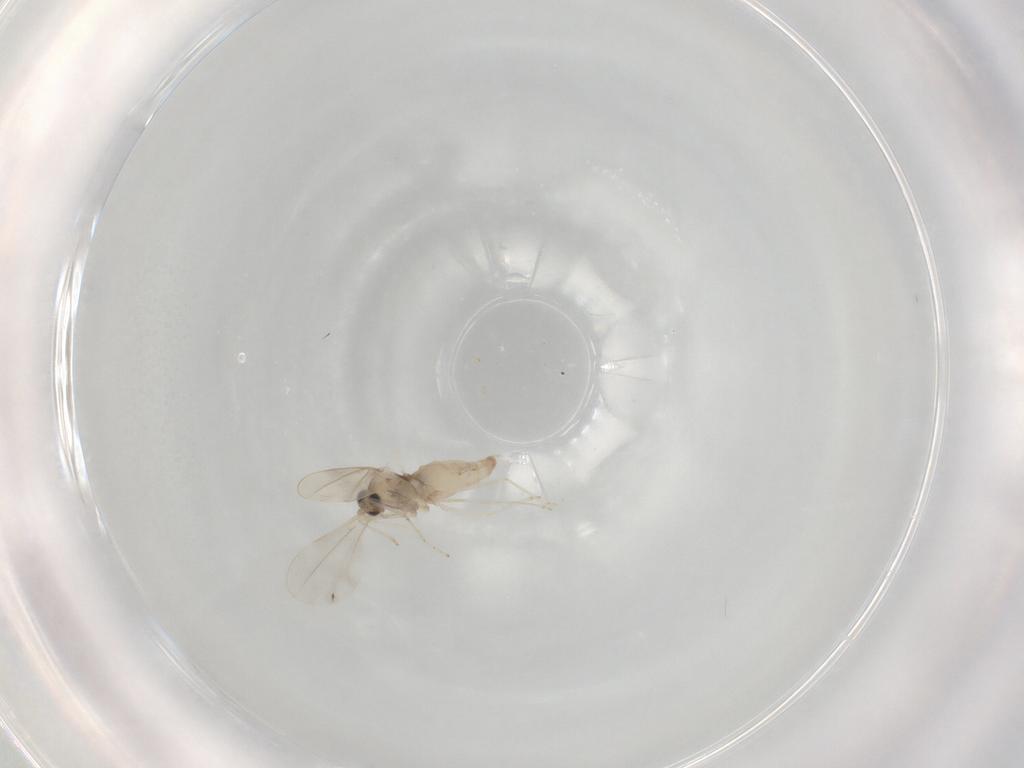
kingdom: Animalia
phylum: Arthropoda
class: Insecta
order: Diptera
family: Cecidomyiidae
